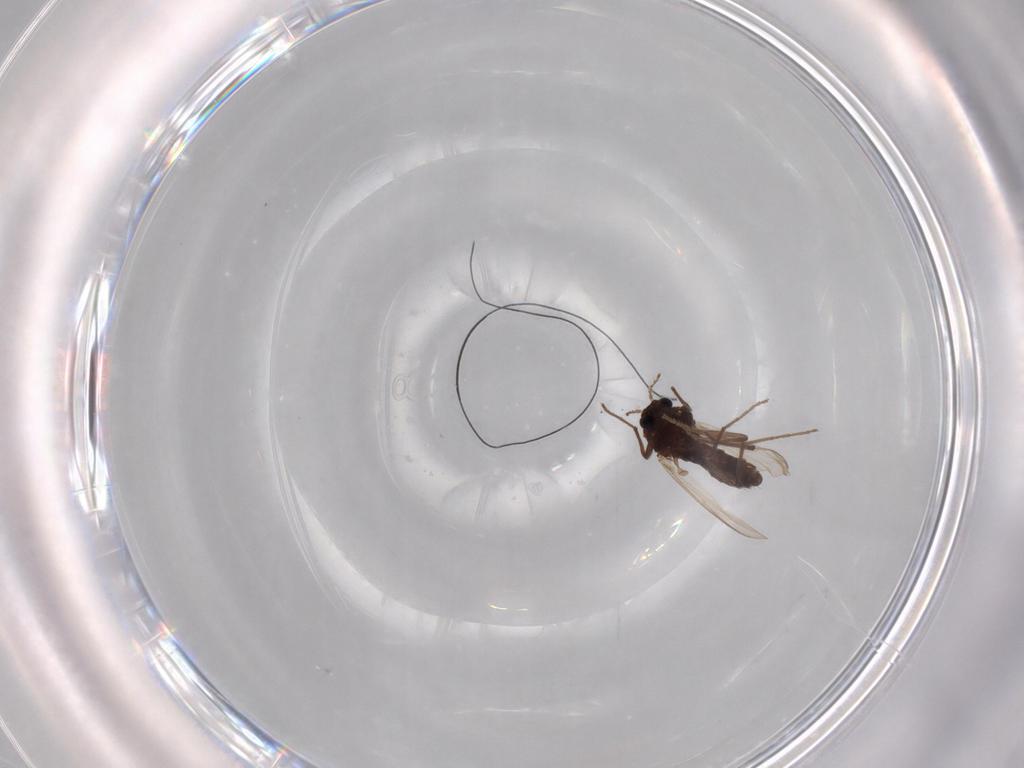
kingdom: Animalia
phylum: Arthropoda
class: Insecta
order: Diptera
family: Chironomidae
